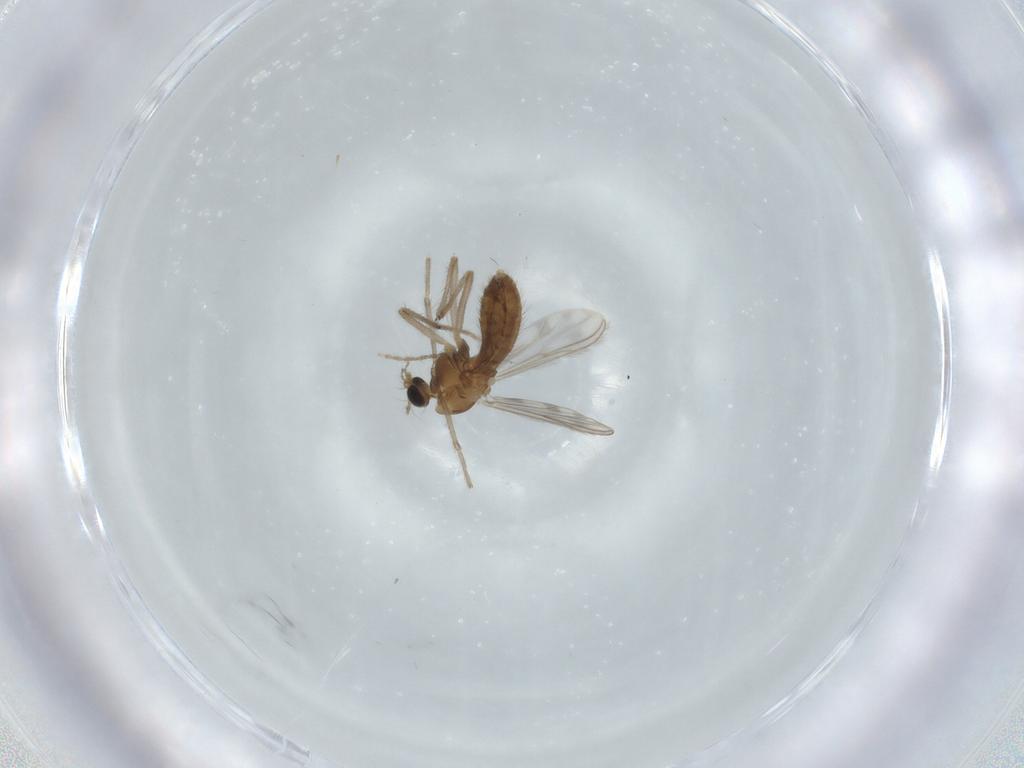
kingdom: Animalia
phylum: Arthropoda
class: Insecta
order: Diptera
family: Chironomidae
